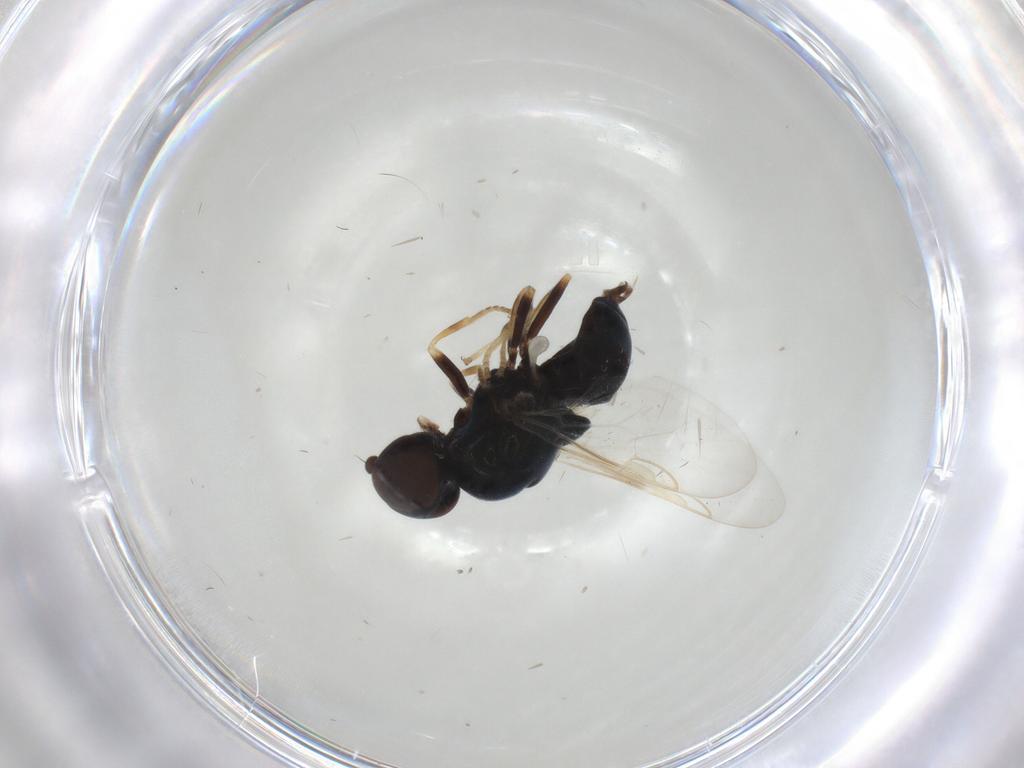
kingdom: Animalia
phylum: Arthropoda
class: Insecta
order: Diptera
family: Stratiomyidae
